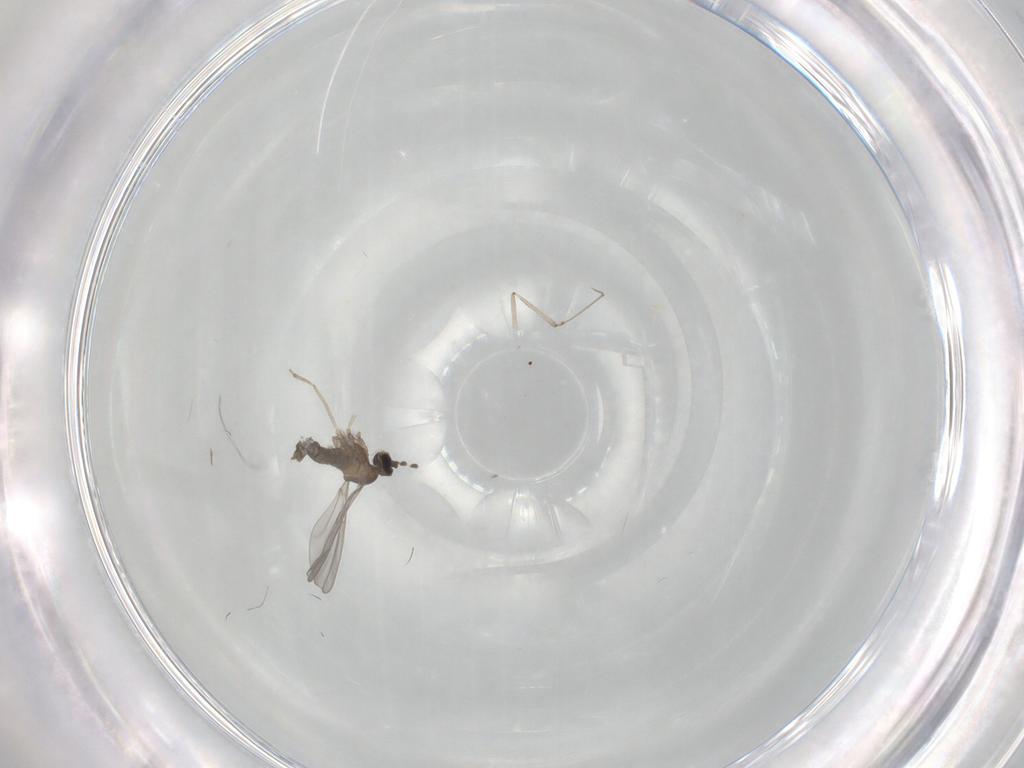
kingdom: Animalia
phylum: Arthropoda
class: Insecta
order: Diptera
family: Cecidomyiidae
